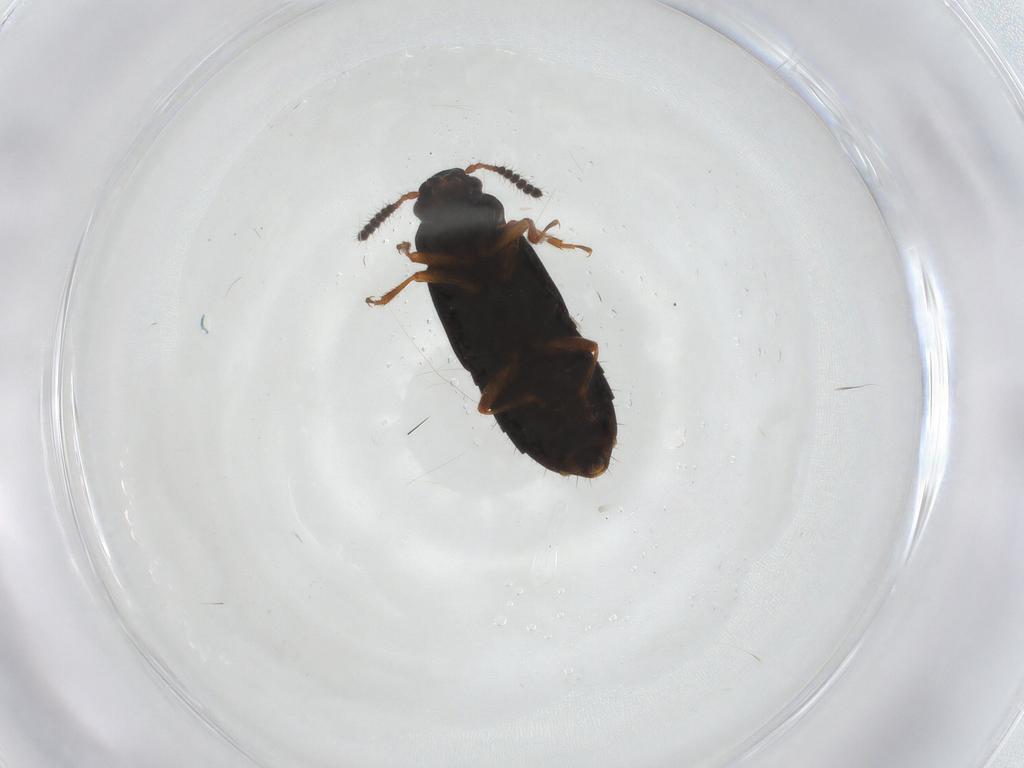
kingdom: Animalia
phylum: Arthropoda
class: Insecta
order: Coleoptera
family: Staphylinidae
